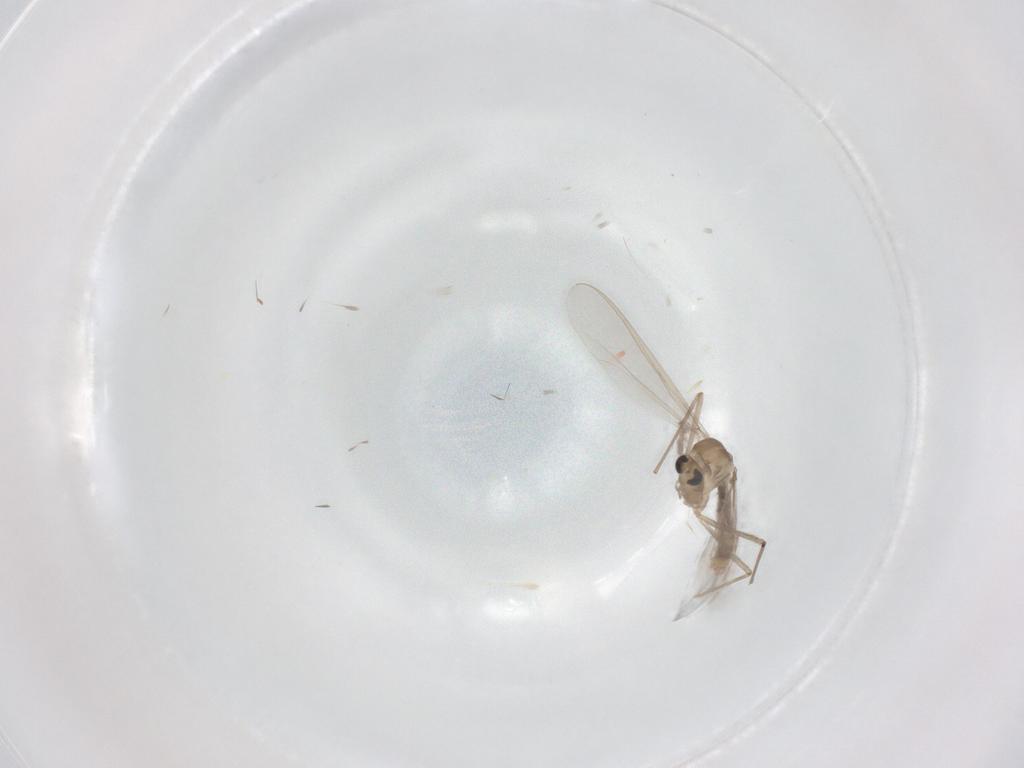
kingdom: Animalia
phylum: Arthropoda
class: Insecta
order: Diptera
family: Chironomidae
